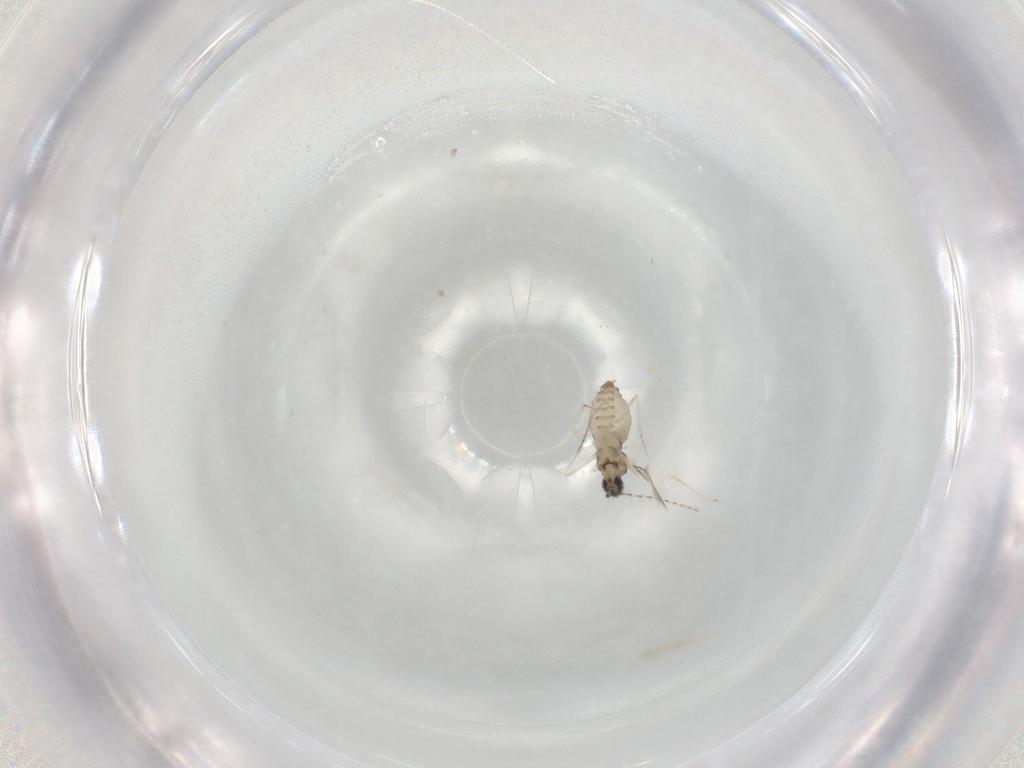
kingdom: Animalia
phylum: Arthropoda
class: Insecta
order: Diptera
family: Cecidomyiidae
